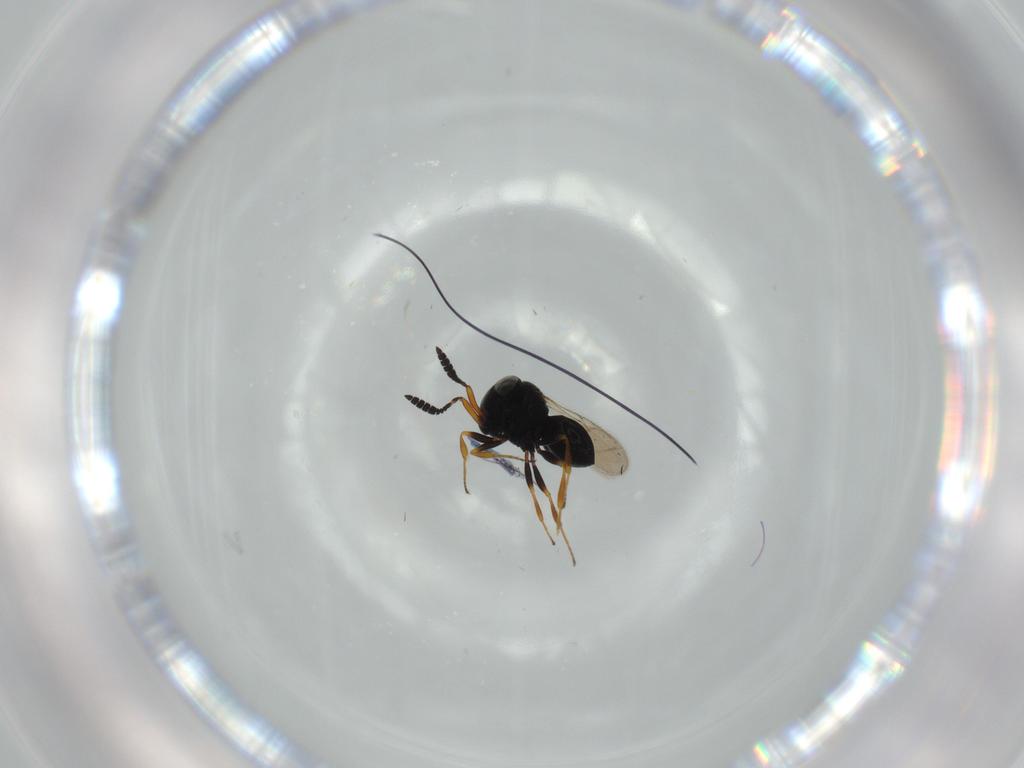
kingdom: Animalia
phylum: Arthropoda
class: Insecta
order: Hymenoptera
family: Scelionidae
